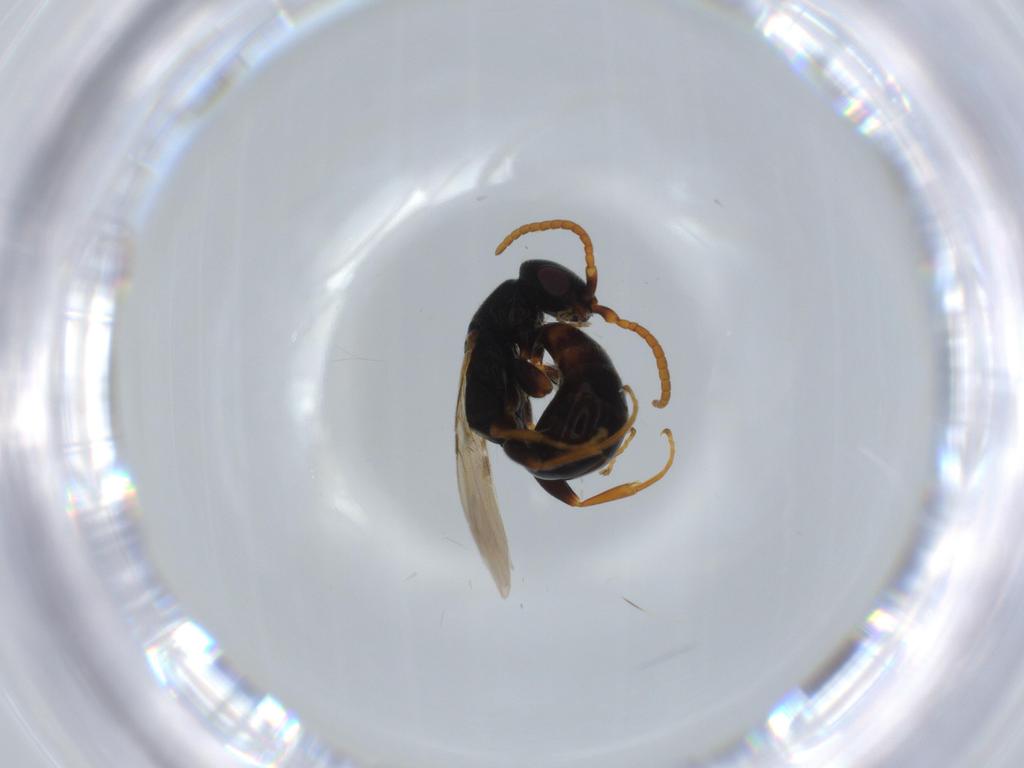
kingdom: Animalia
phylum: Arthropoda
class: Insecta
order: Hymenoptera
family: Bethylidae
